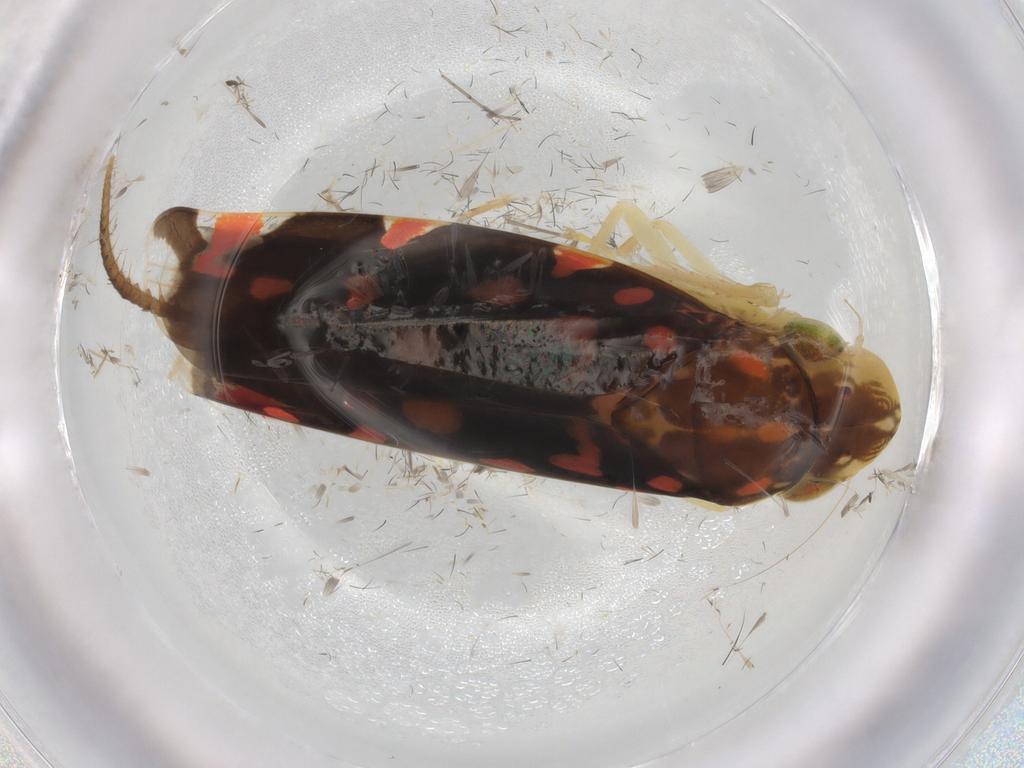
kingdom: Animalia
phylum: Arthropoda
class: Insecta
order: Hemiptera
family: Cicadellidae
